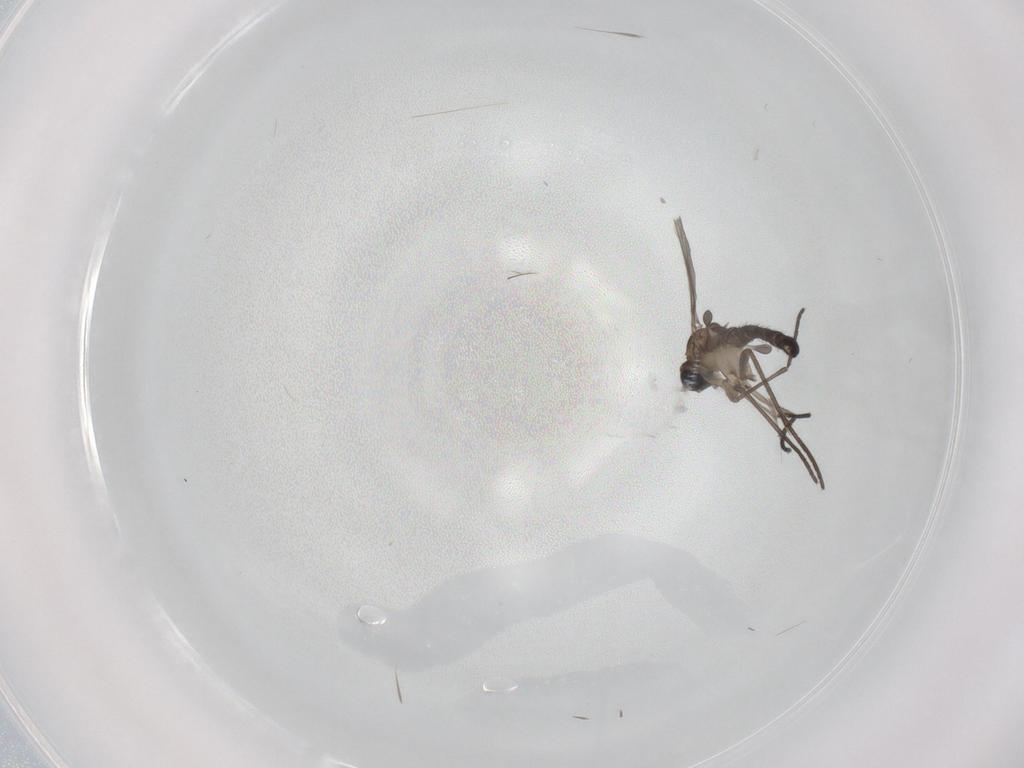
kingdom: Animalia
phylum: Arthropoda
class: Insecta
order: Diptera
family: Sciaridae
